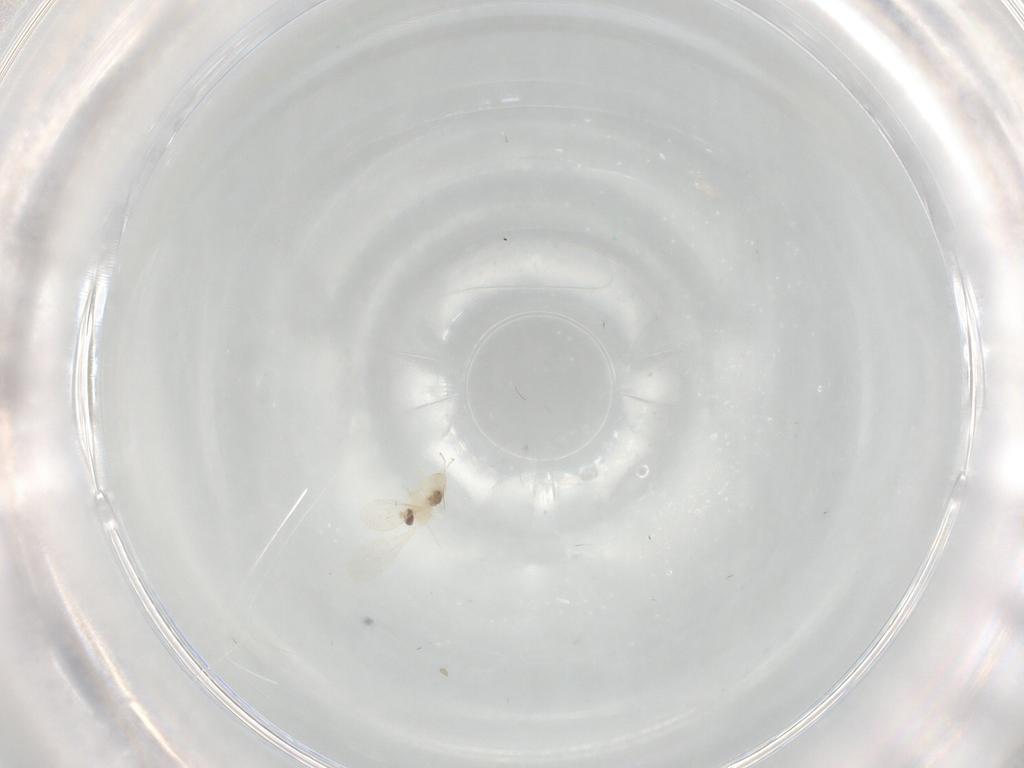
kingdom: Animalia
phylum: Arthropoda
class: Insecta
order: Diptera
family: Cecidomyiidae
